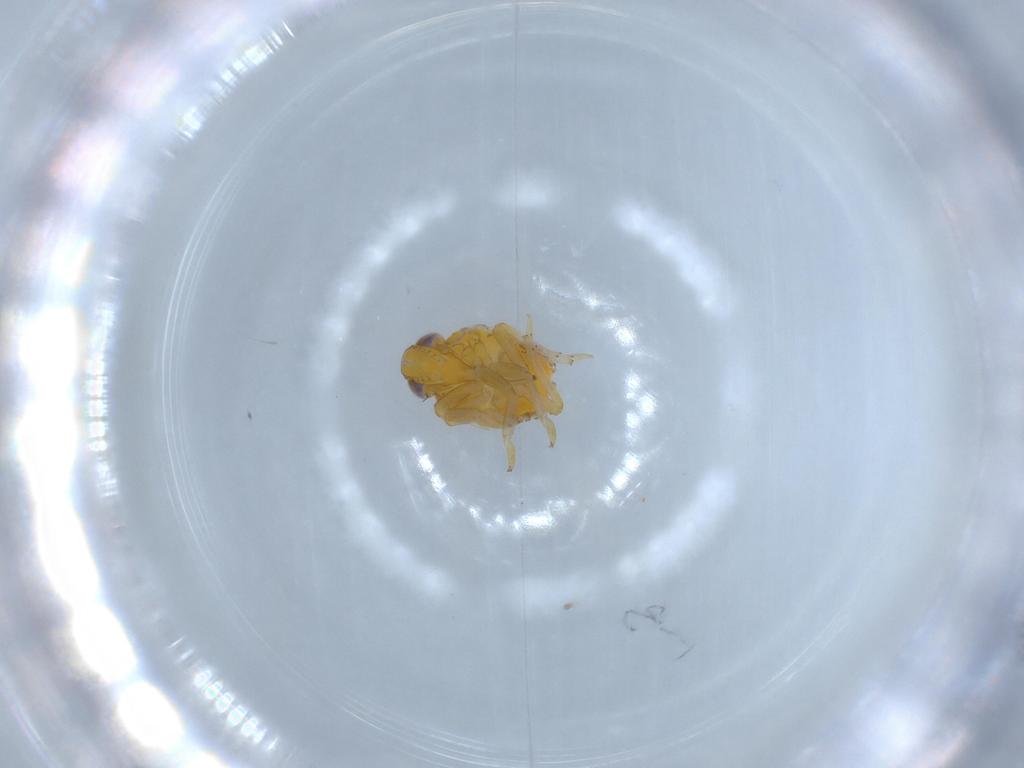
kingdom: Animalia
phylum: Arthropoda
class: Insecta
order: Hemiptera
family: Issidae
